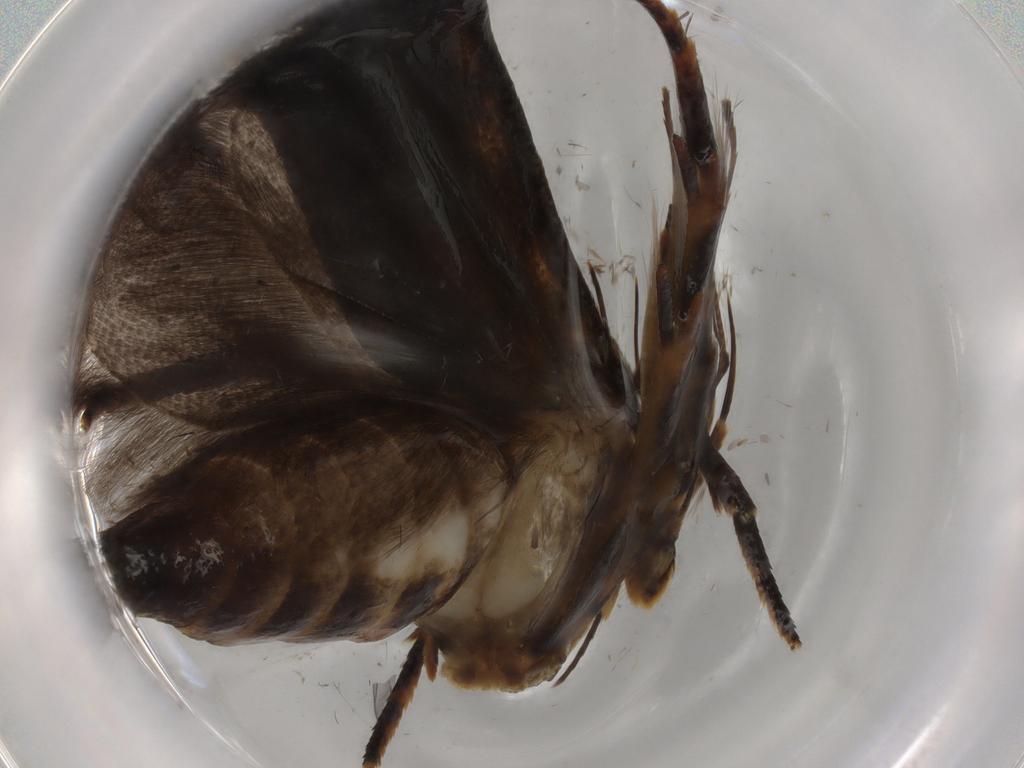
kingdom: Animalia
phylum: Arthropoda
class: Insecta
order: Lepidoptera
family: Gelechiidae
